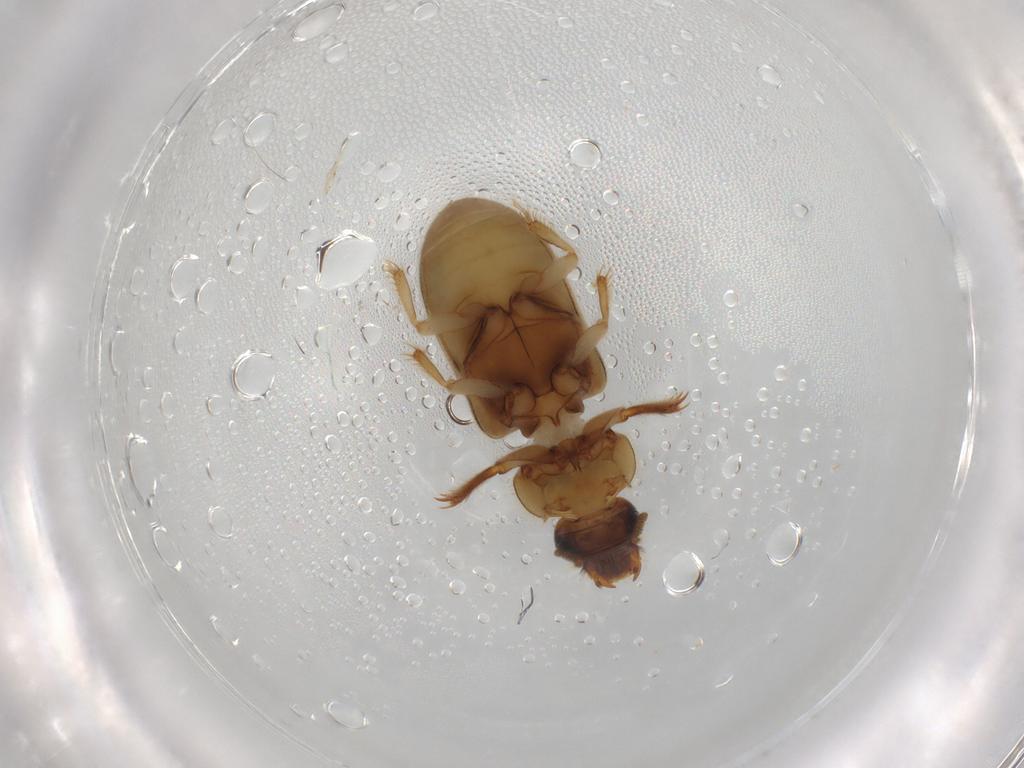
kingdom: Animalia
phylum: Arthropoda
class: Insecta
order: Coleoptera
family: Heteroceridae
